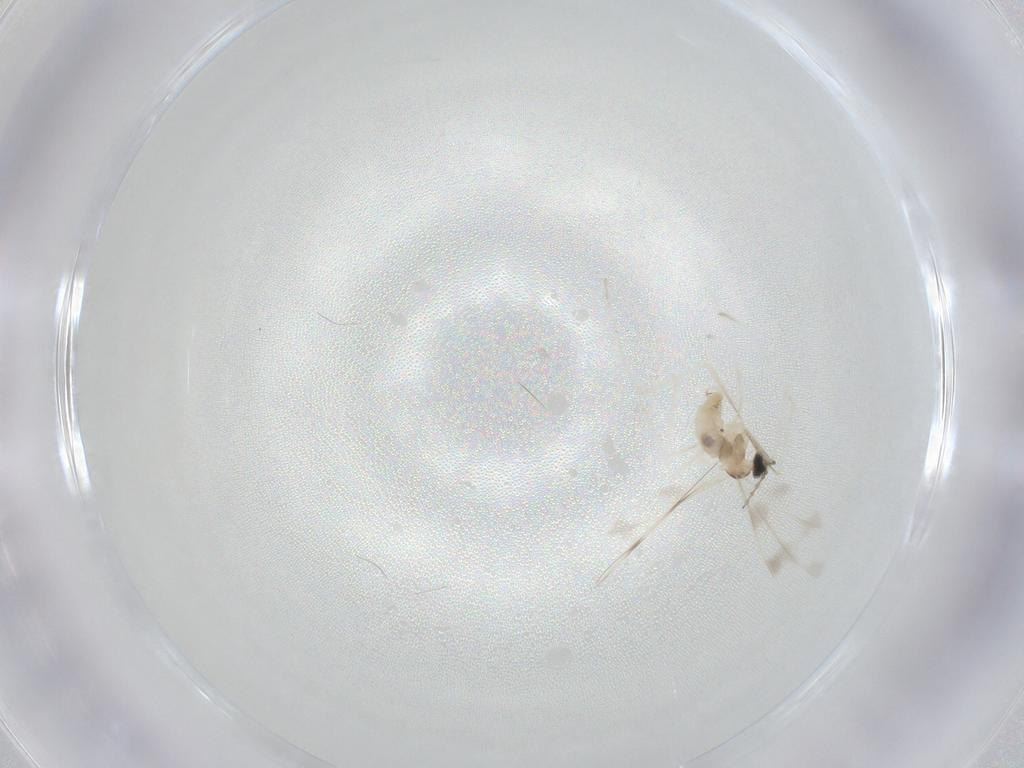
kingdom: Animalia
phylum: Arthropoda
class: Insecta
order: Diptera
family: Cecidomyiidae
